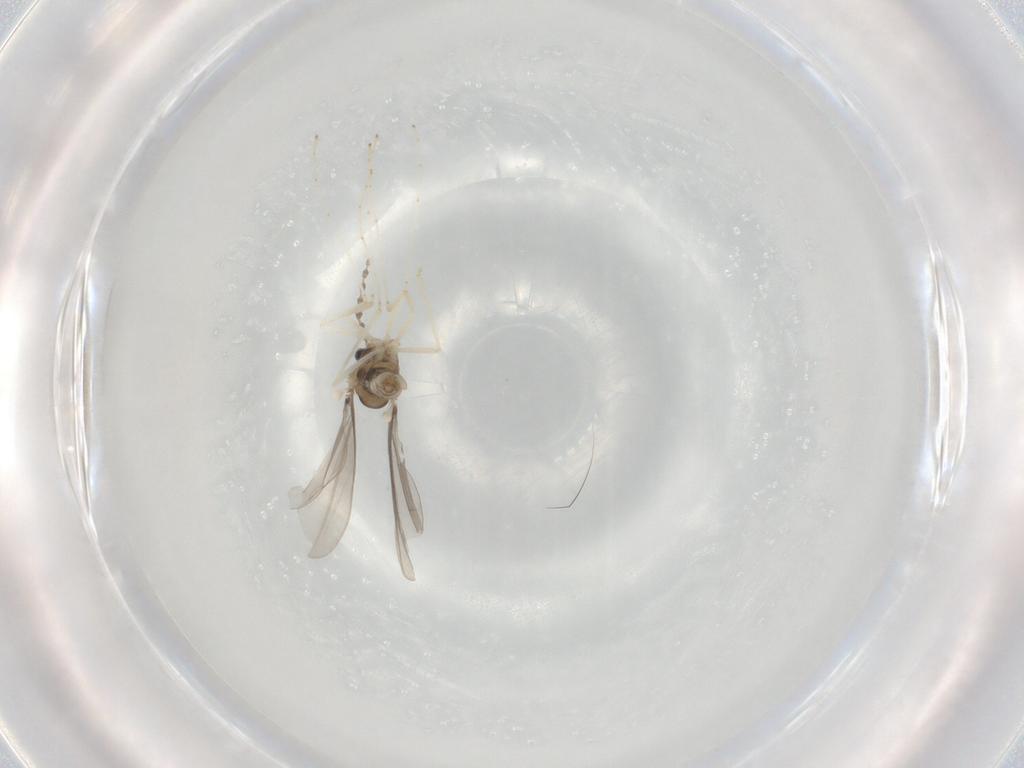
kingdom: Animalia
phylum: Arthropoda
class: Insecta
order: Diptera
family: Cecidomyiidae
